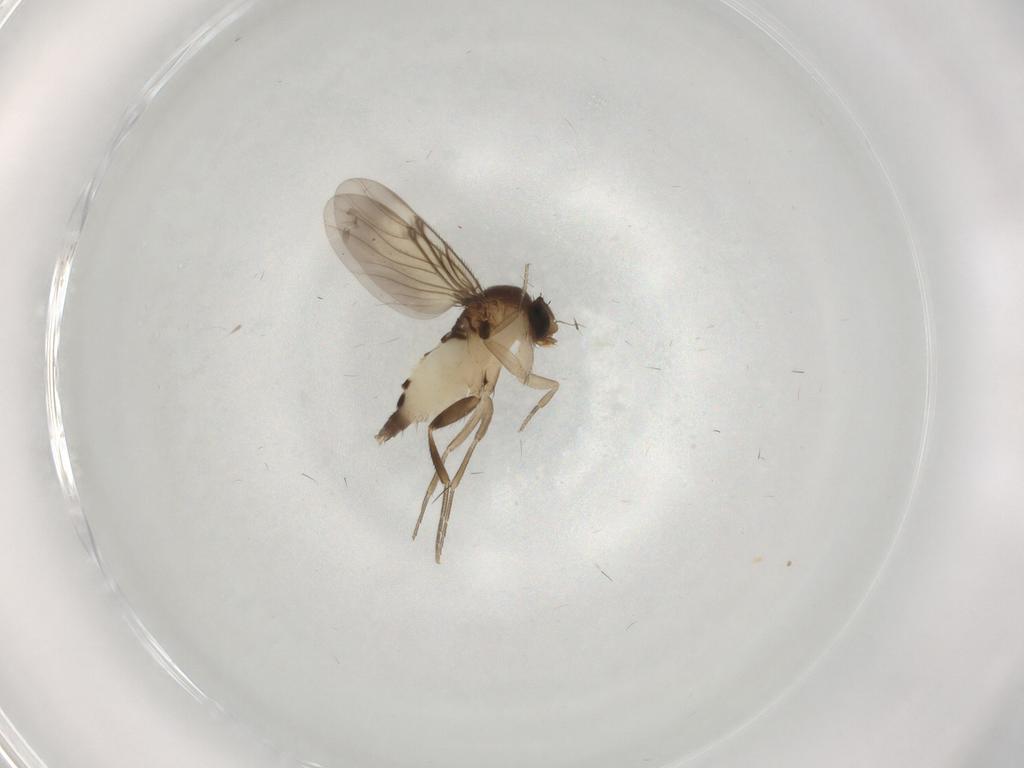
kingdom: Animalia
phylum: Arthropoda
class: Insecta
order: Diptera
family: Phoridae
